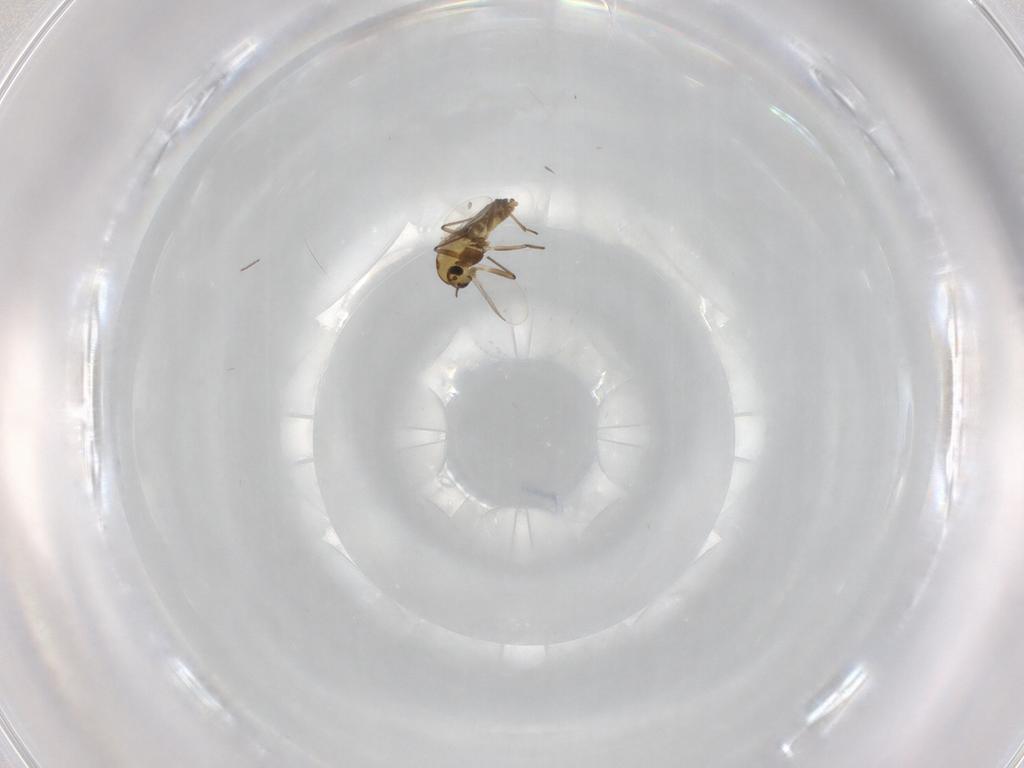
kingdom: Animalia
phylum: Arthropoda
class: Insecta
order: Diptera
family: Chironomidae
